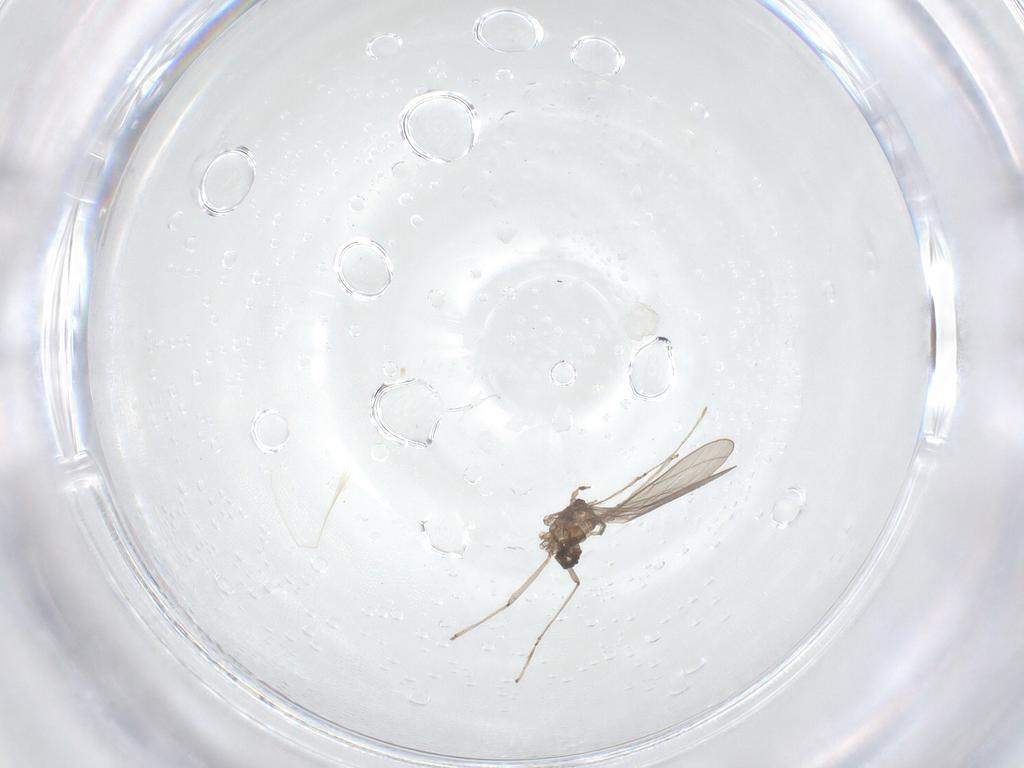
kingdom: Animalia
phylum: Arthropoda
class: Insecta
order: Diptera
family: Cecidomyiidae
